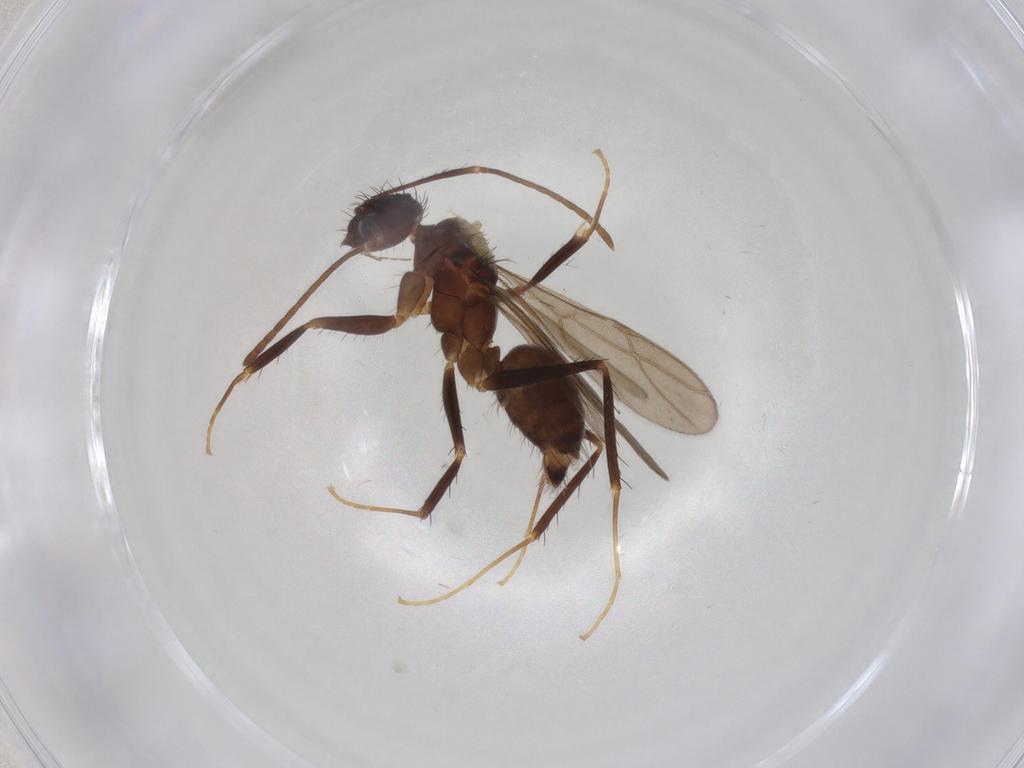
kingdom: Animalia
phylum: Arthropoda
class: Insecta
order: Hymenoptera
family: Formicidae
